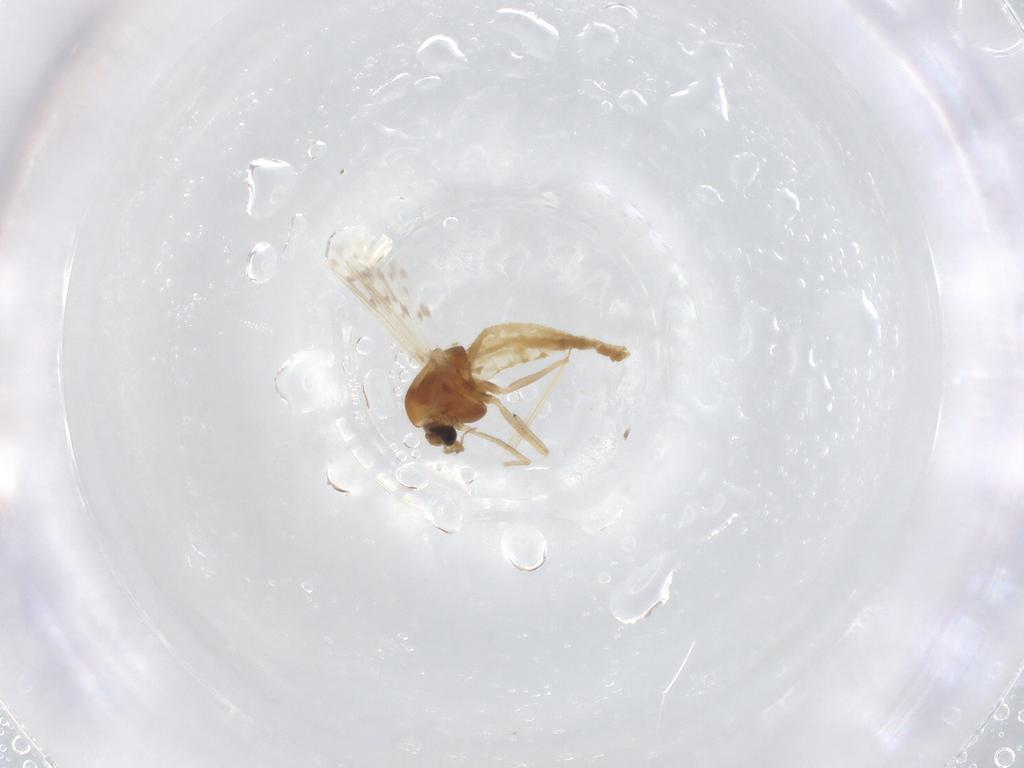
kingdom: Animalia
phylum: Arthropoda
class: Insecta
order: Diptera
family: Chironomidae
